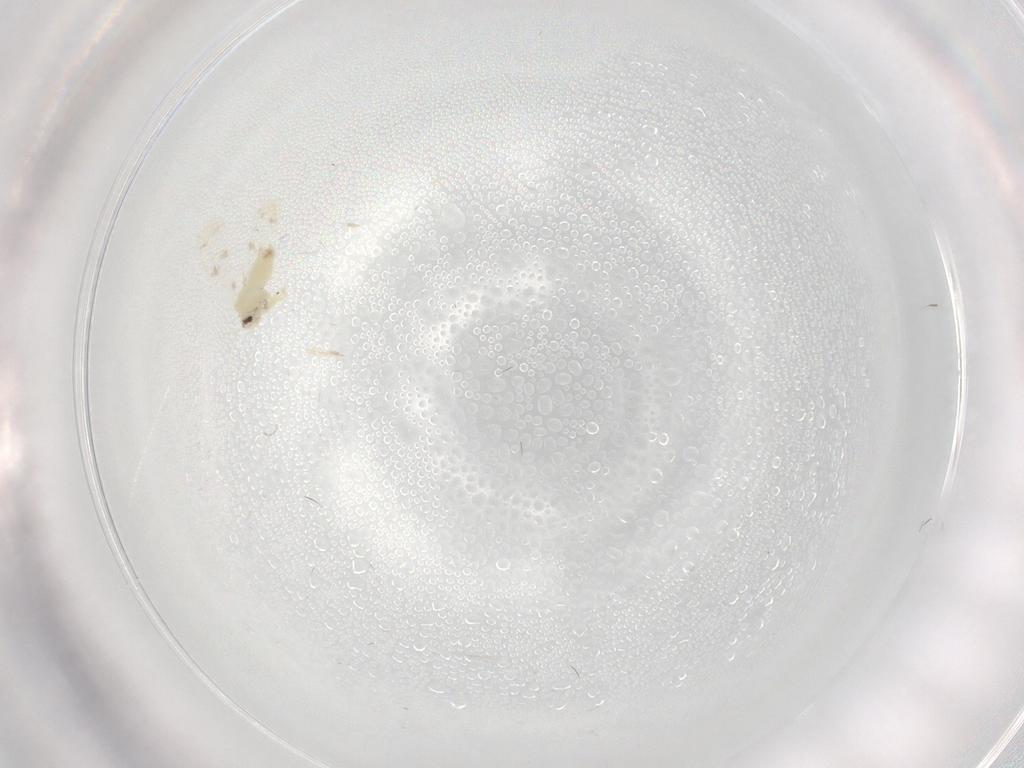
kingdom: Animalia
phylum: Arthropoda
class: Insecta
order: Hemiptera
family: Aleyrodidae
